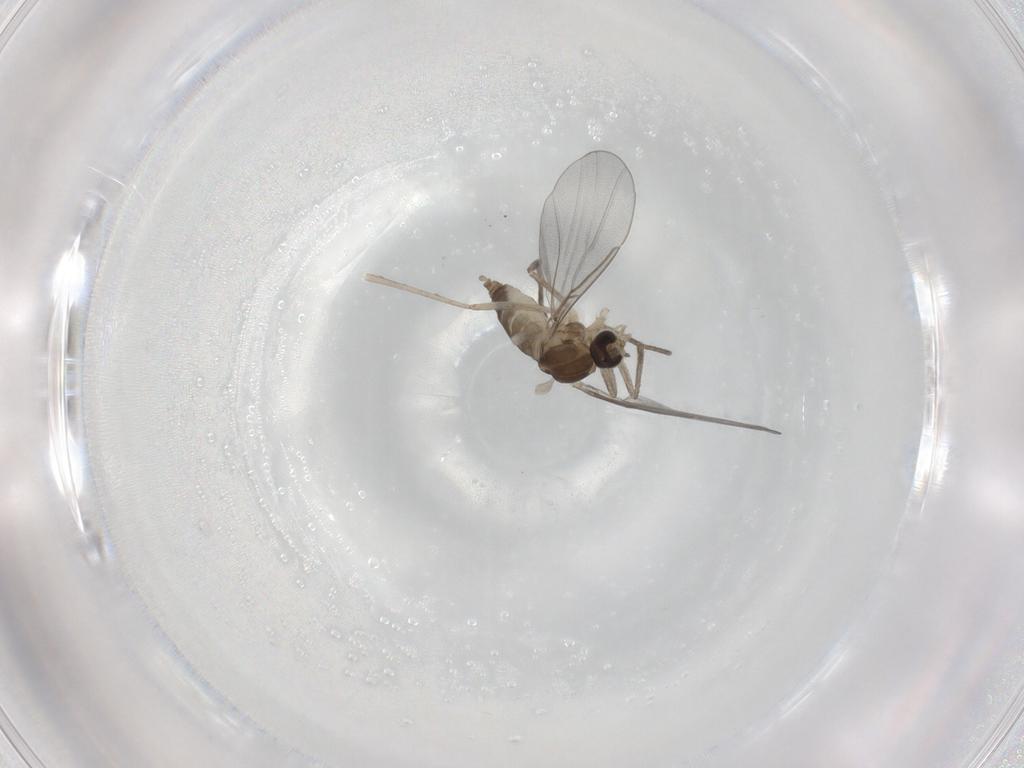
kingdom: Animalia
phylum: Arthropoda
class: Insecta
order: Diptera
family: Cecidomyiidae
